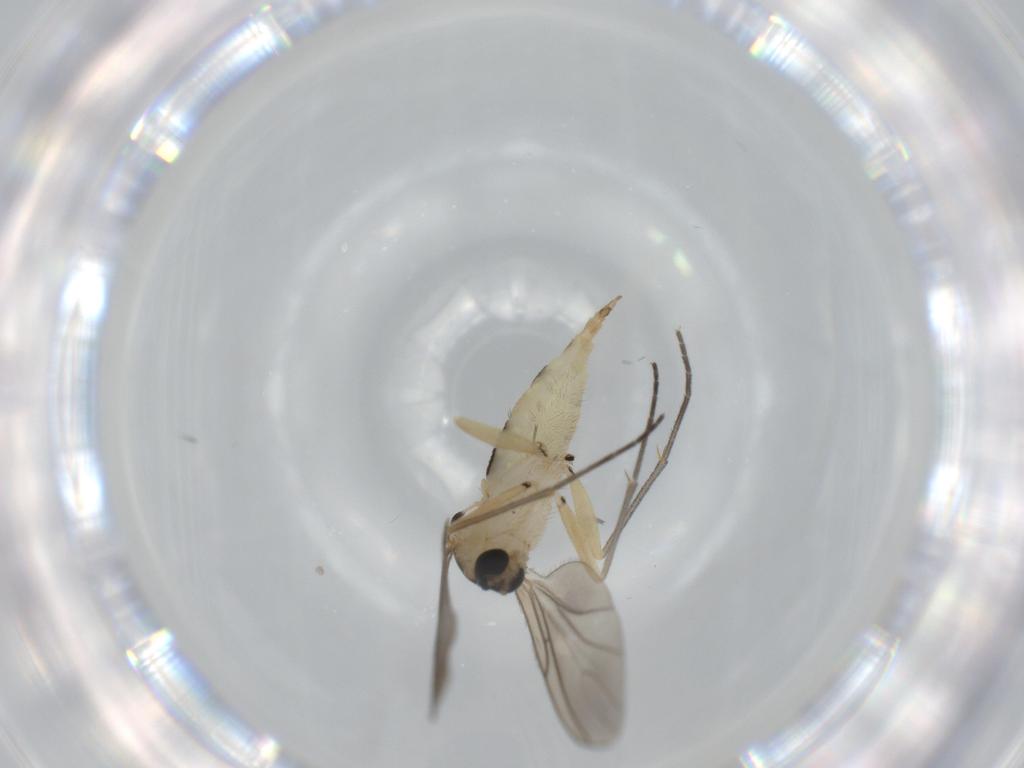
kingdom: Animalia
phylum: Arthropoda
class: Insecta
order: Diptera
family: Sciaridae
